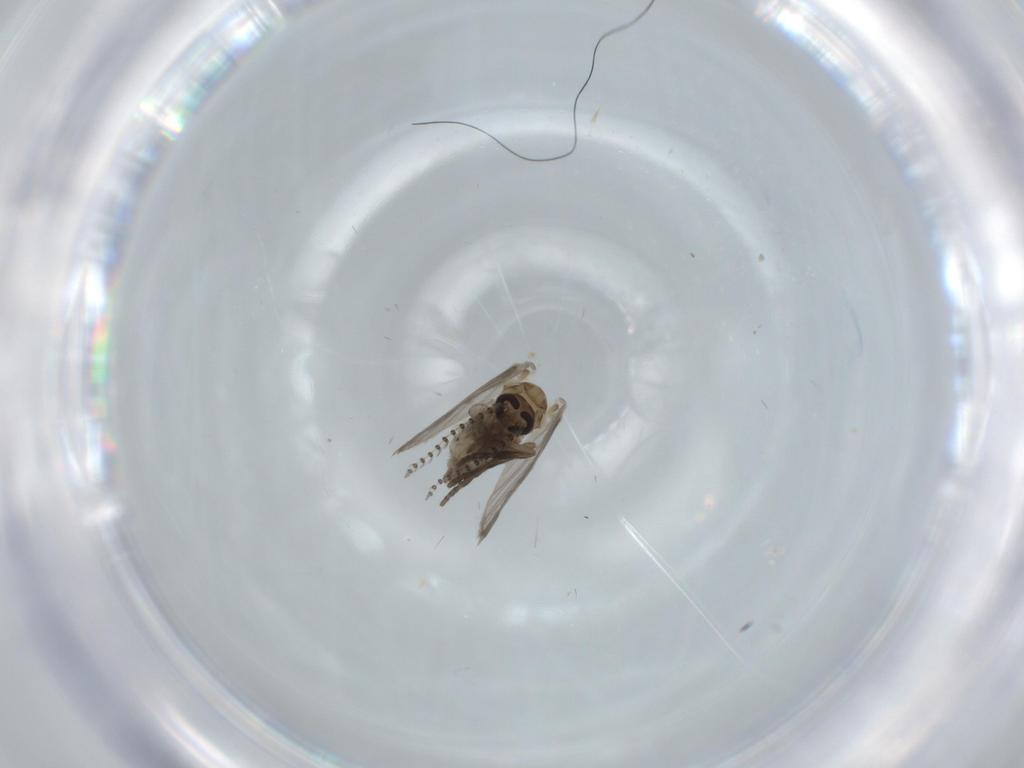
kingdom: Animalia
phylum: Arthropoda
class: Insecta
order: Diptera
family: Psychodidae
